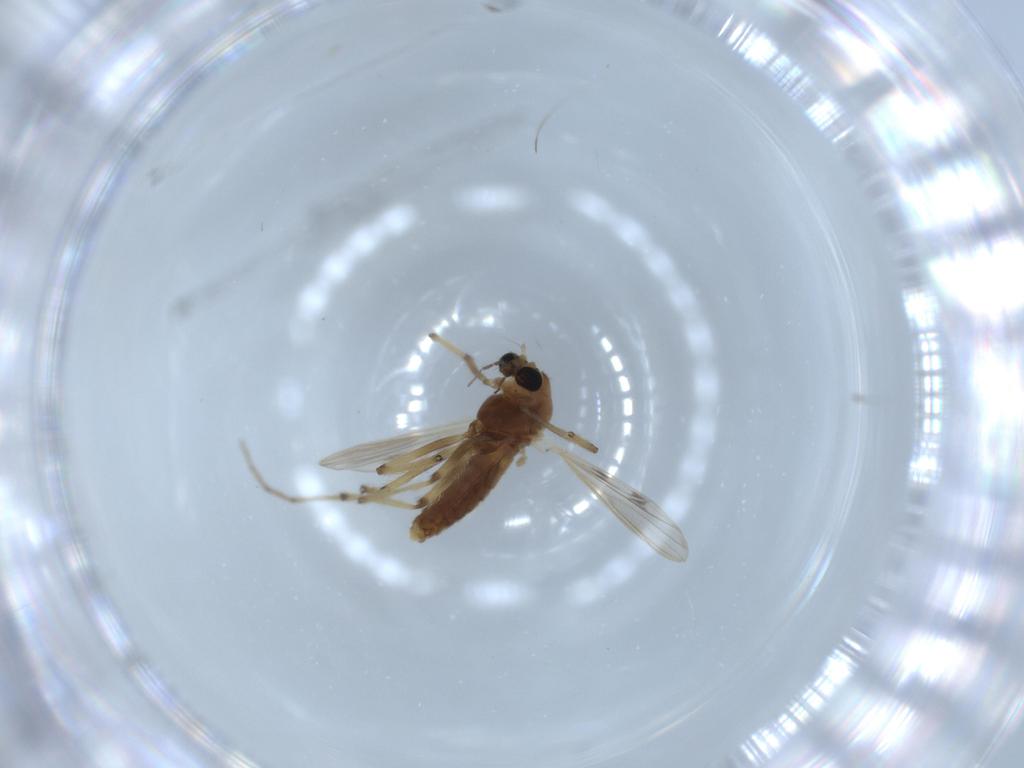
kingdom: Animalia
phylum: Arthropoda
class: Insecta
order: Diptera
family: Chironomidae
